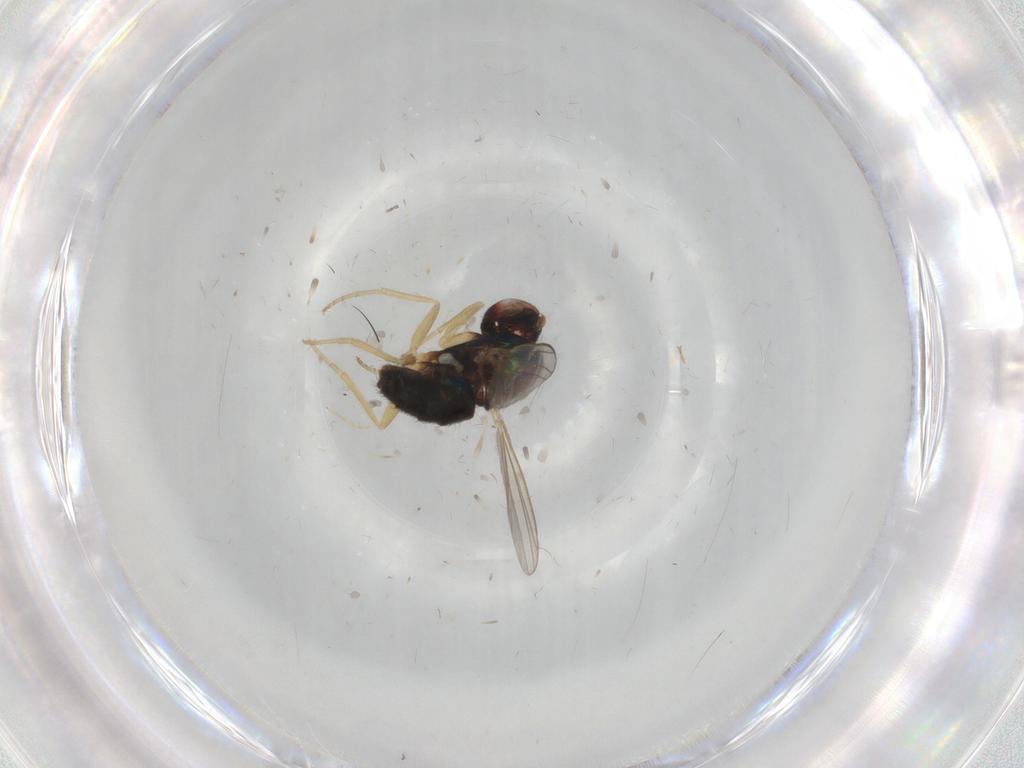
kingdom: Animalia
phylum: Arthropoda
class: Insecta
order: Diptera
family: Dolichopodidae
